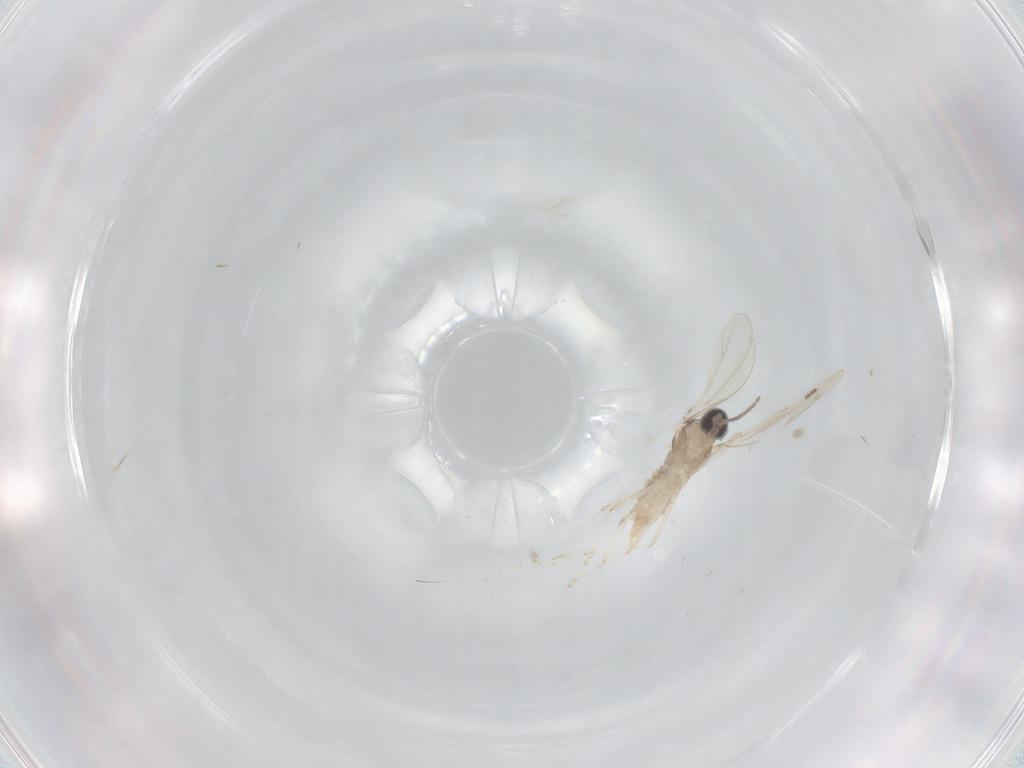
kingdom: Animalia
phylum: Arthropoda
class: Insecta
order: Diptera
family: Cecidomyiidae
